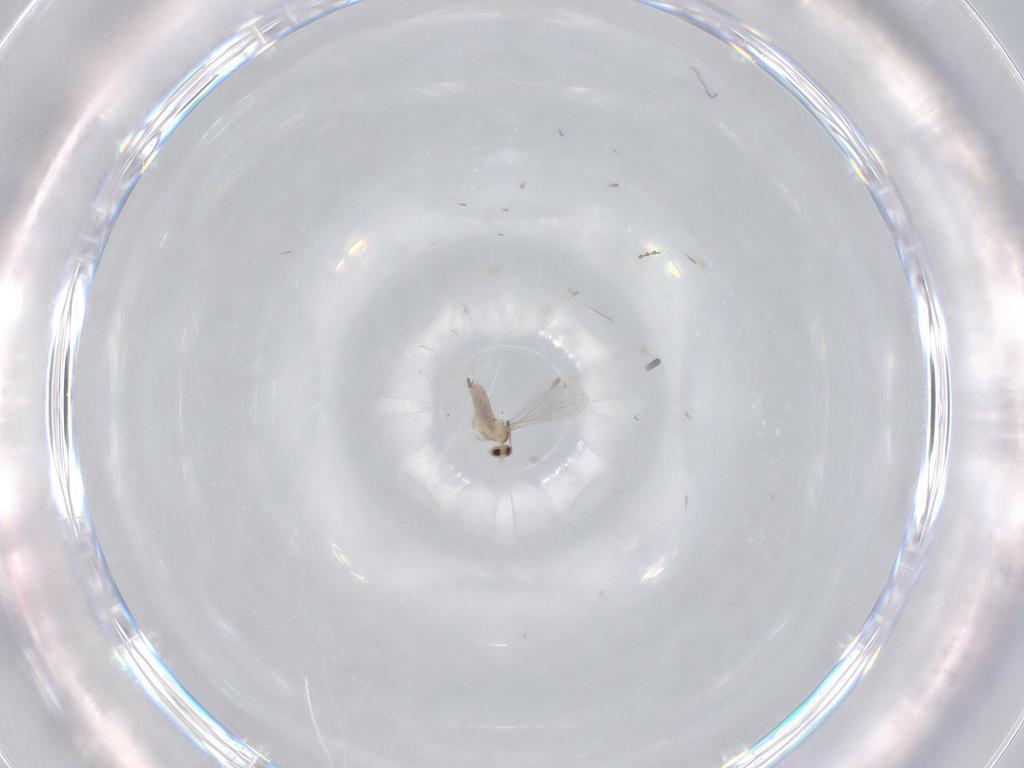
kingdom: Animalia
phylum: Arthropoda
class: Insecta
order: Diptera
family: Cecidomyiidae
